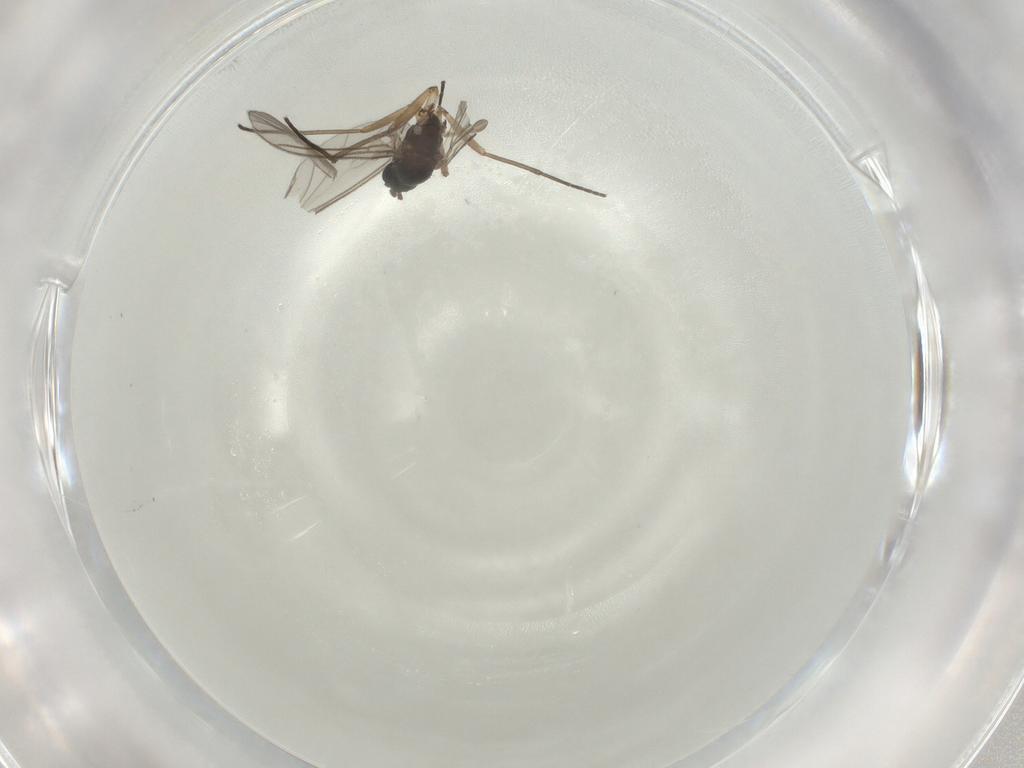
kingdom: Animalia
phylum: Arthropoda
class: Insecta
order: Diptera
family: Sciaridae
